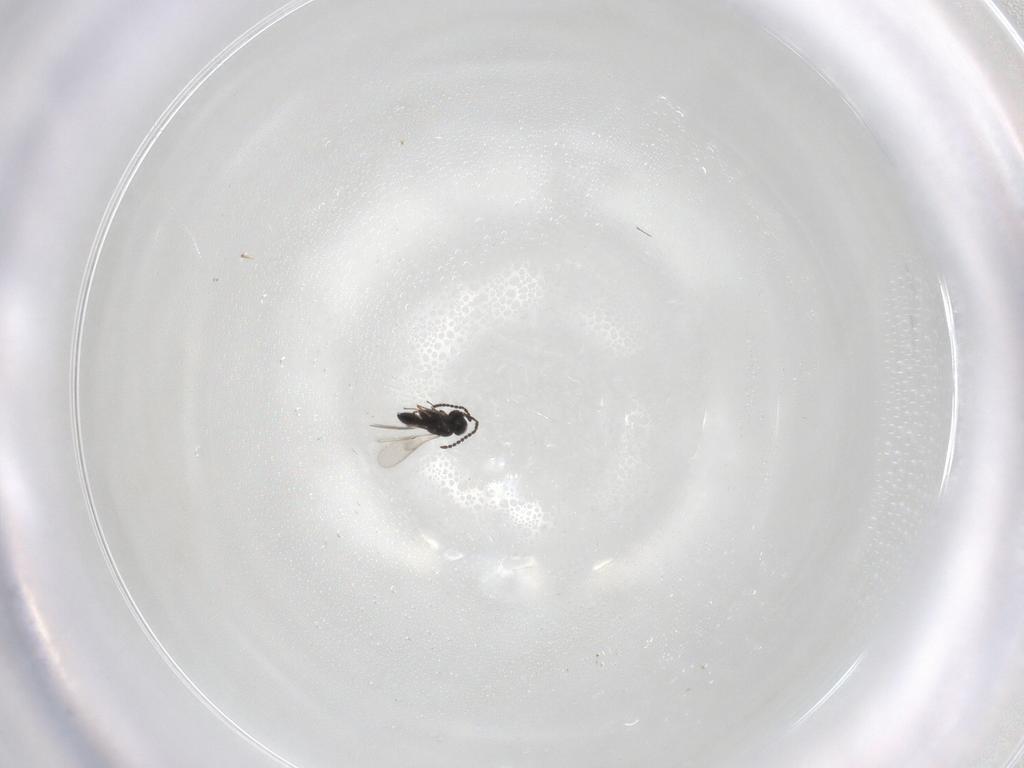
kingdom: Animalia
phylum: Arthropoda
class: Insecta
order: Hymenoptera
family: Scelionidae
